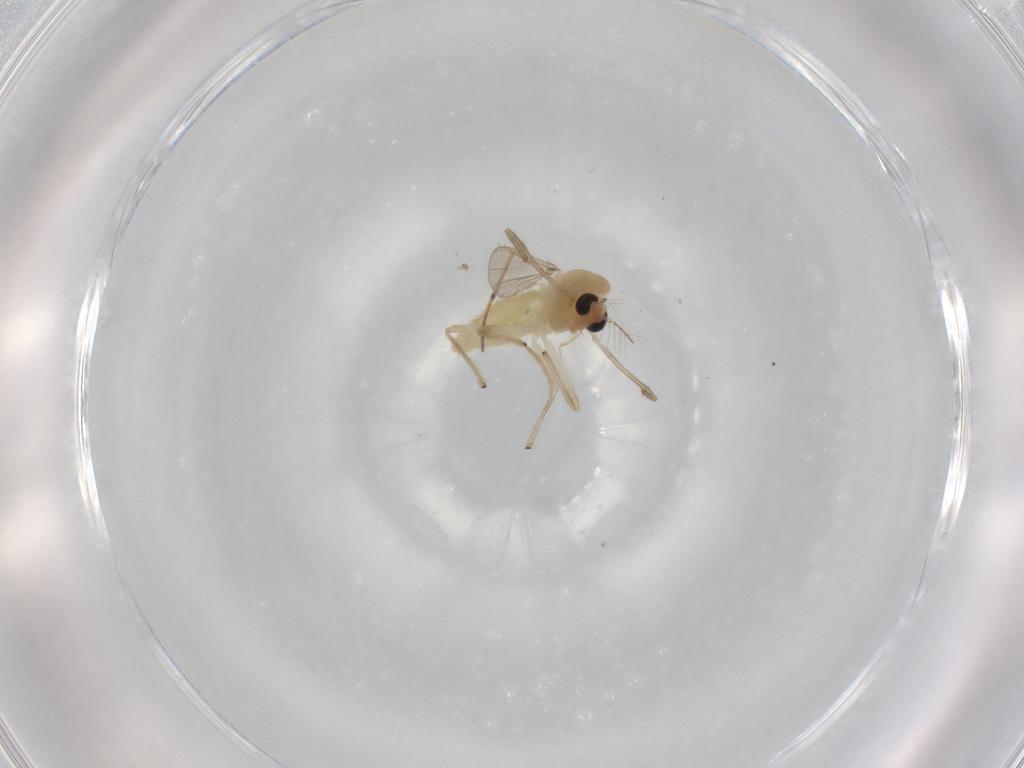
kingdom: Animalia
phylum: Arthropoda
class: Insecta
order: Diptera
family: Chironomidae
